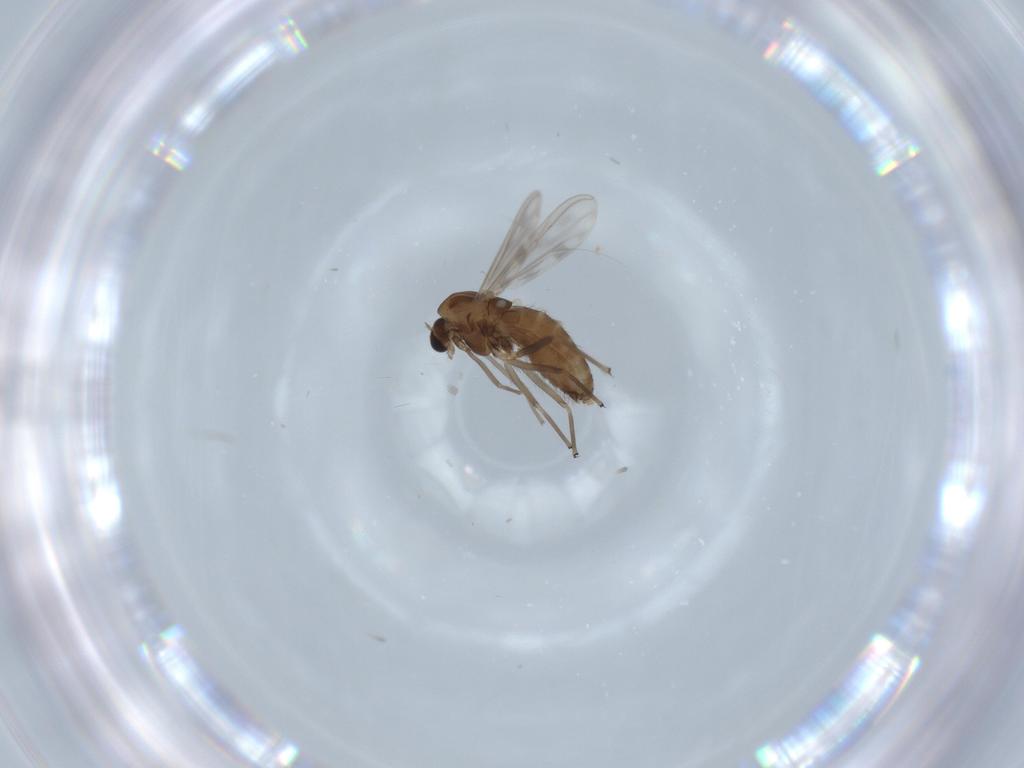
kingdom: Animalia
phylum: Arthropoda
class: Insecta
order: Diptera
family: Chironomidae
